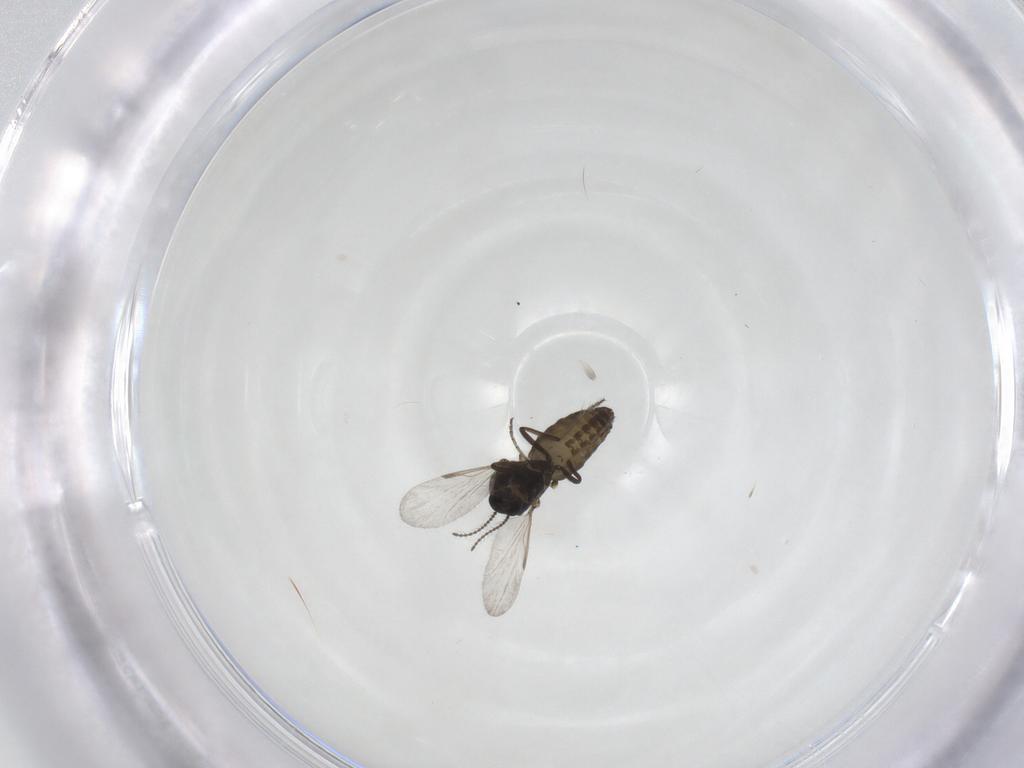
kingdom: Animalia
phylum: Arthropoda
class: Insecta
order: Diptera
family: Ceratopogonidae
